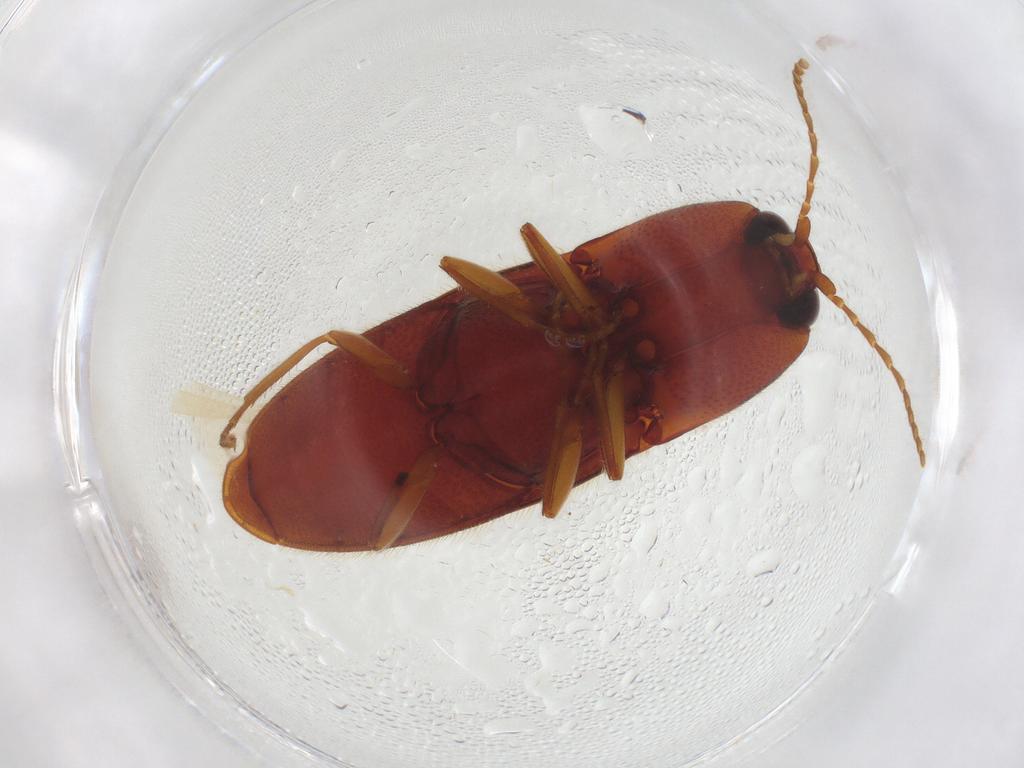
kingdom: Animalia
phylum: Arthropoda
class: Insecta
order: Coleoptera
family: Elateridae
